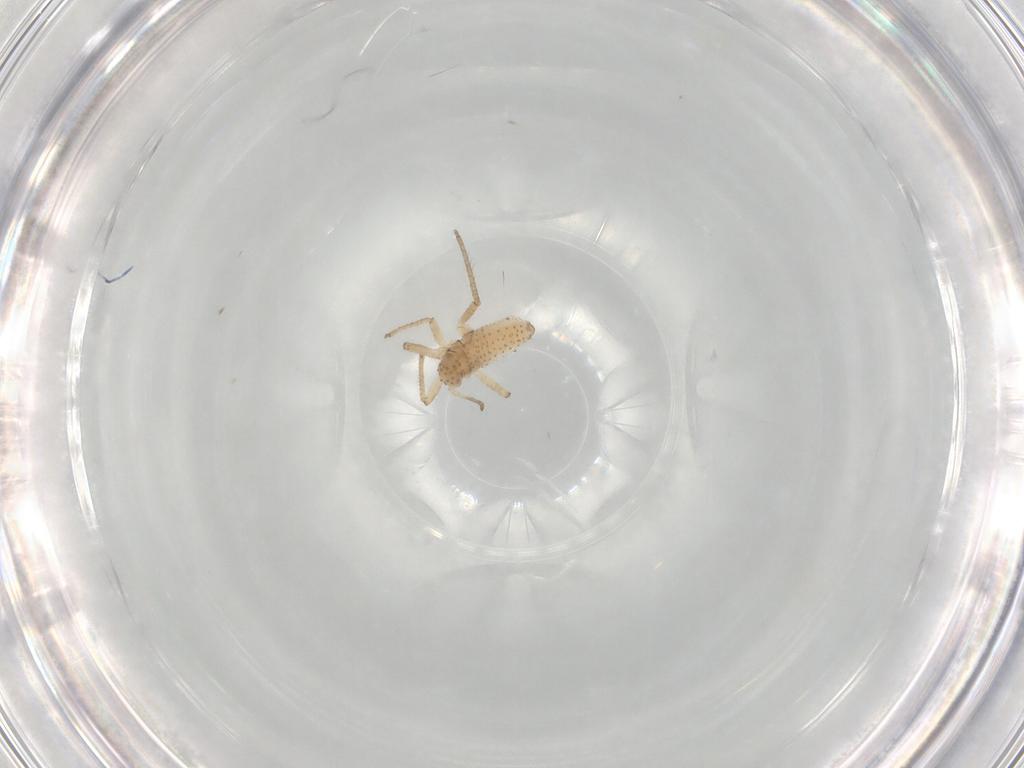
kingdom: Animalia
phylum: Arthropoda
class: Insecta
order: Hemiptera
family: Aphididae
